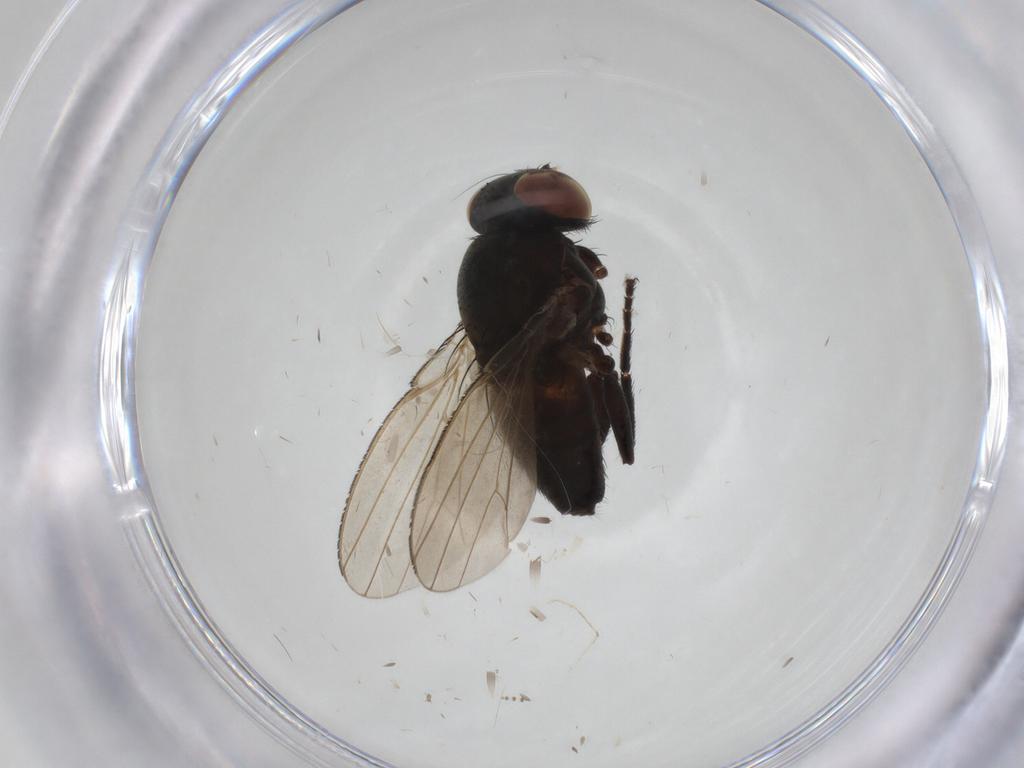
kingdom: Animalia
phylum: Arthropoda
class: Insecta
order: Diptera
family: Milichiidae
